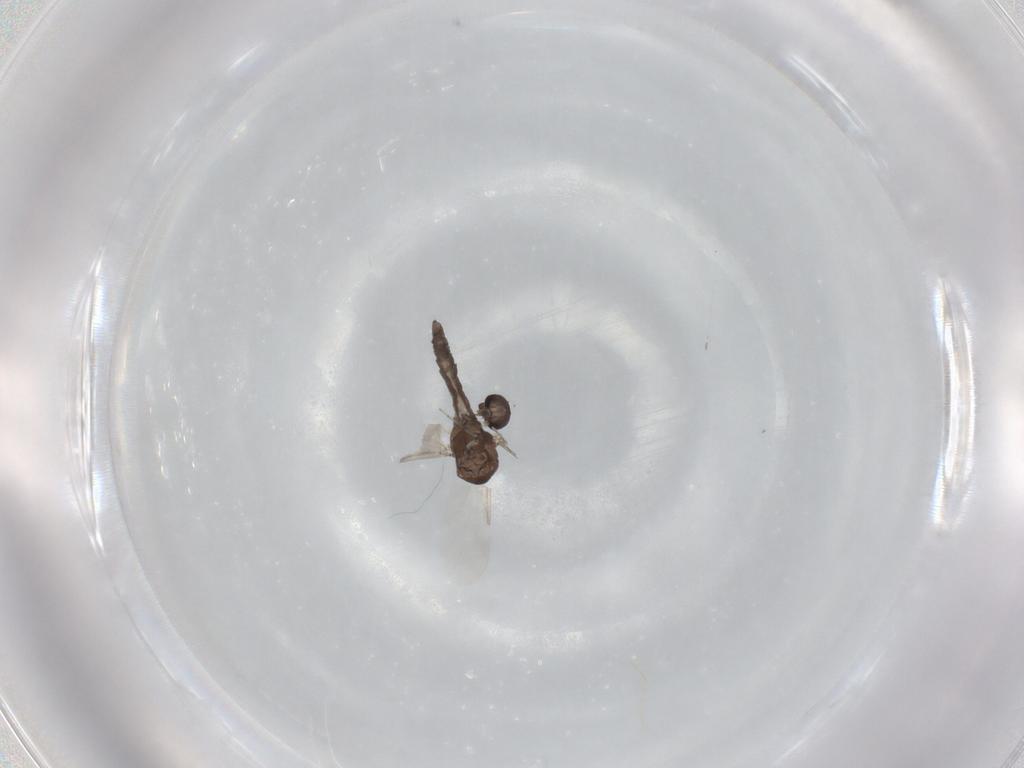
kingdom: Animalia
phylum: Arthropoda
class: Insecta
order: Diptera
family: Ceratopogonidae
